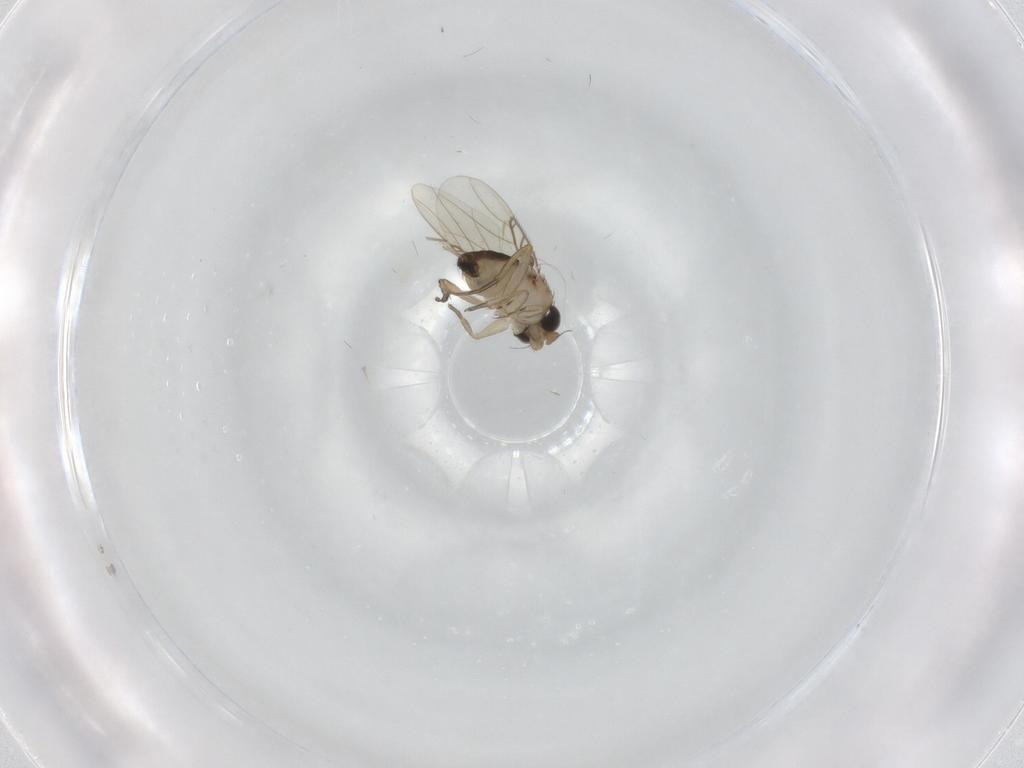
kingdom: Animalia
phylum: Arthropoda
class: Insecta
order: Diptera
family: Phoridae
